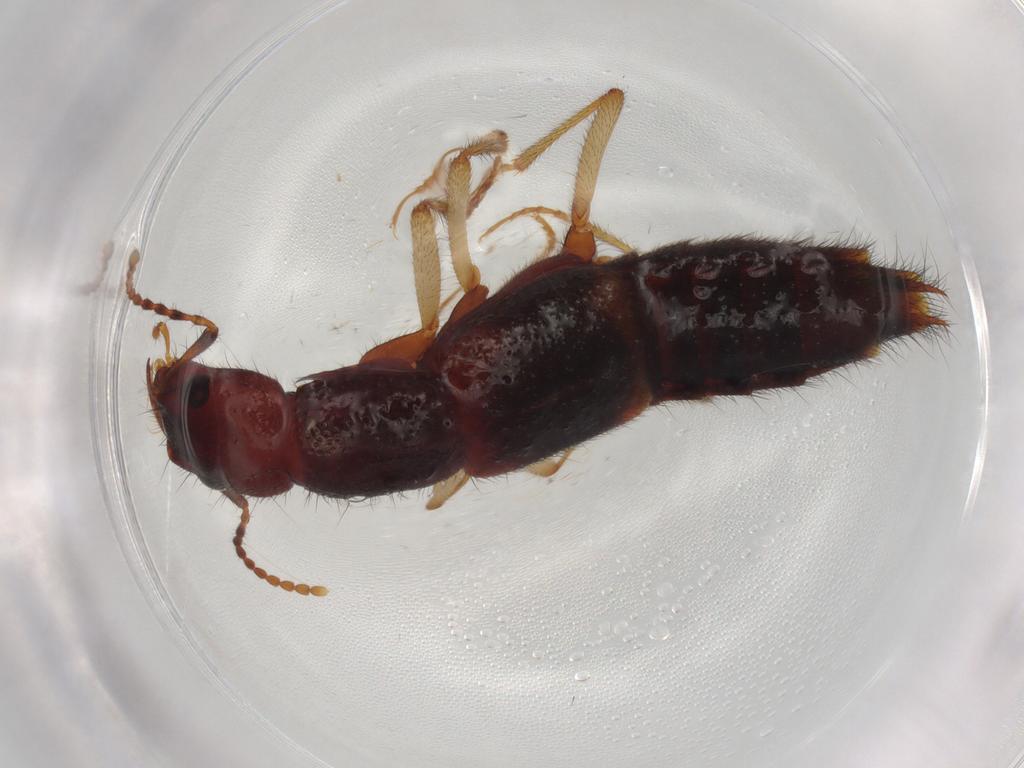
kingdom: Animalia
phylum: Arthropoda
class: Insecta
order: Coleoptera
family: Staphylinidae
